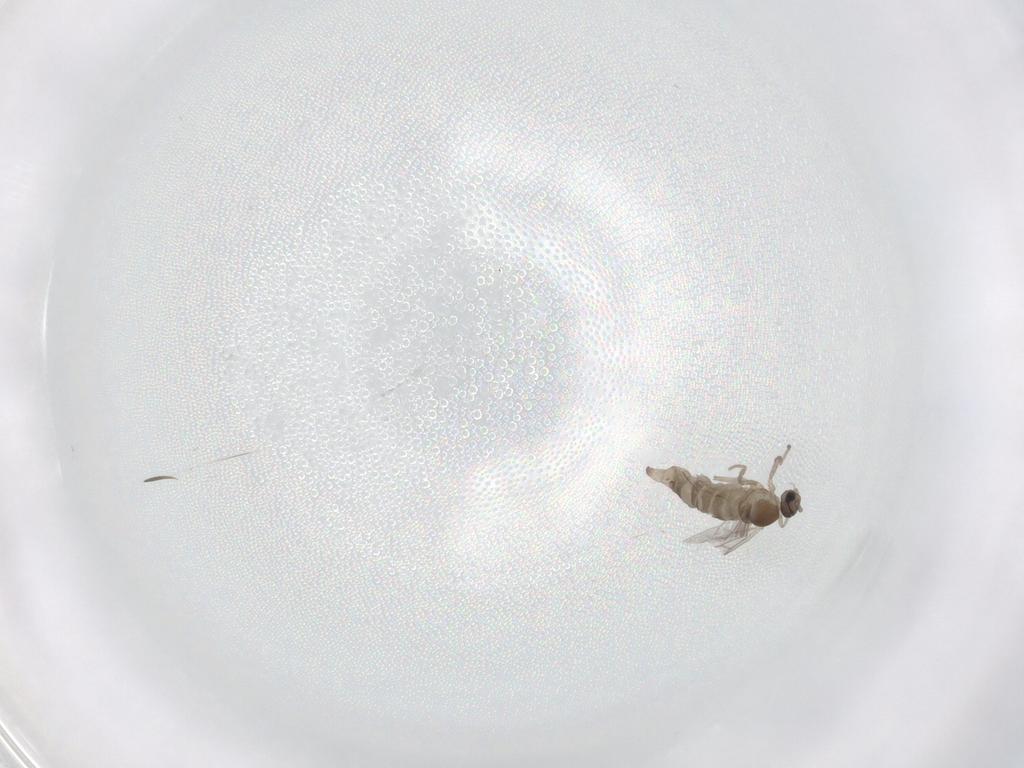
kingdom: Animalia
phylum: Arthropoda
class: Insecta
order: Diptera
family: Cecidomyiidae
